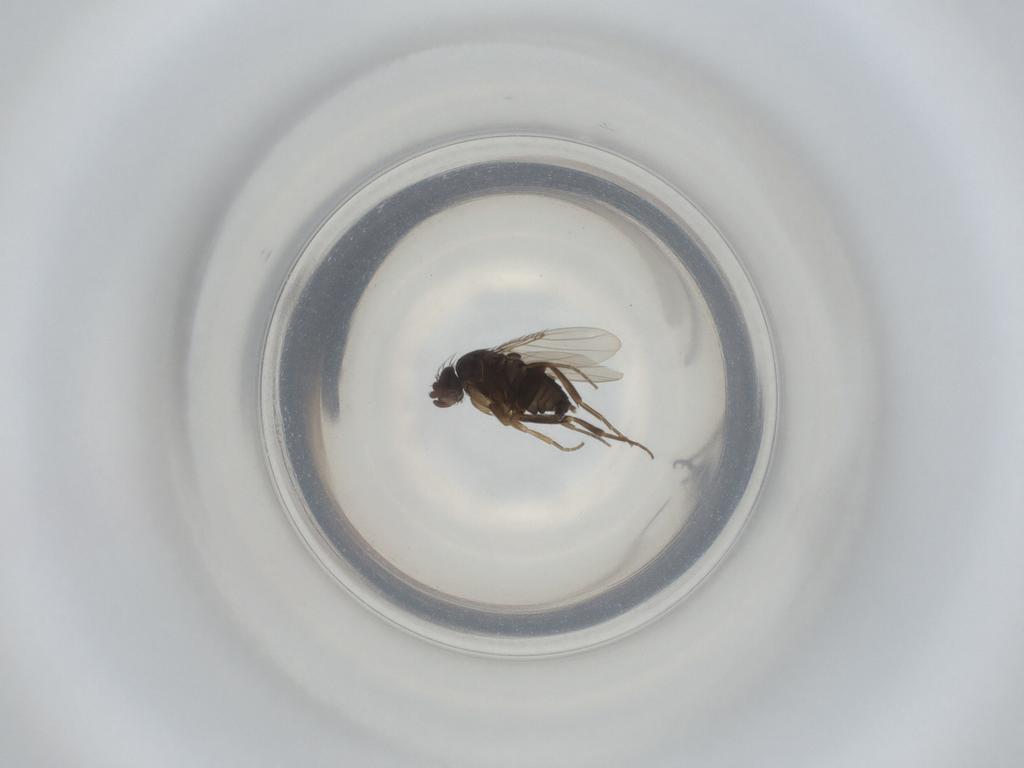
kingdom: Animalia
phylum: Arthropoda
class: Insecta
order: Diptera
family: Phoridae
